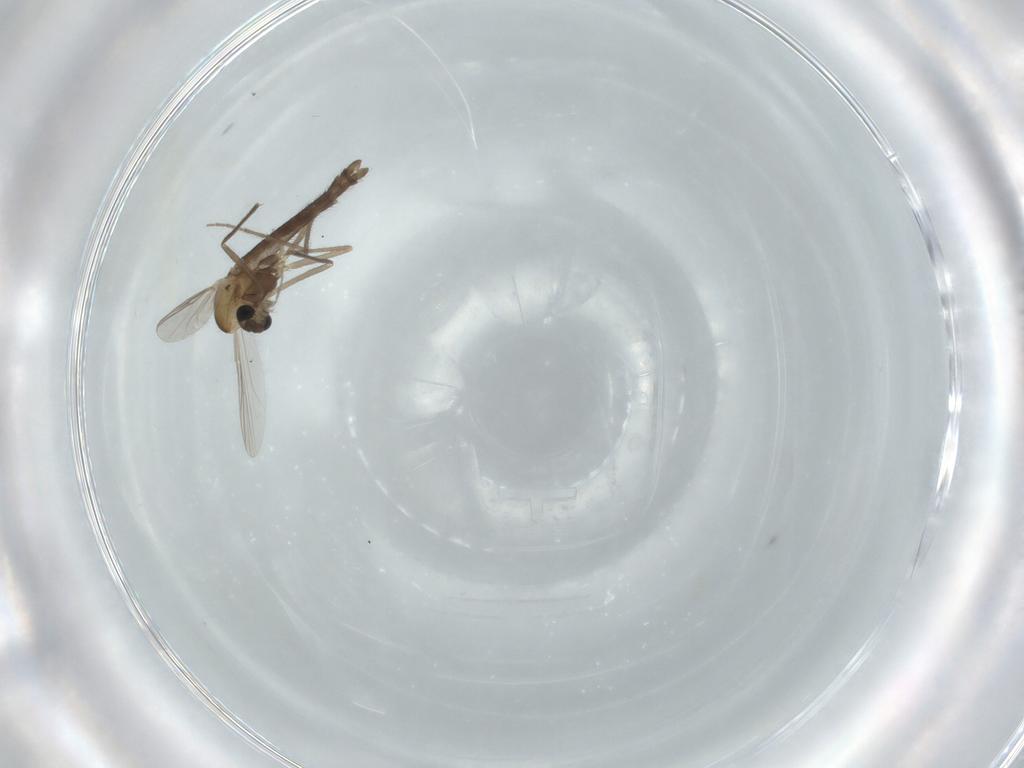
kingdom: Animalia
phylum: Arthropoda
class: Insecta
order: Diptera
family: Chironomidae
